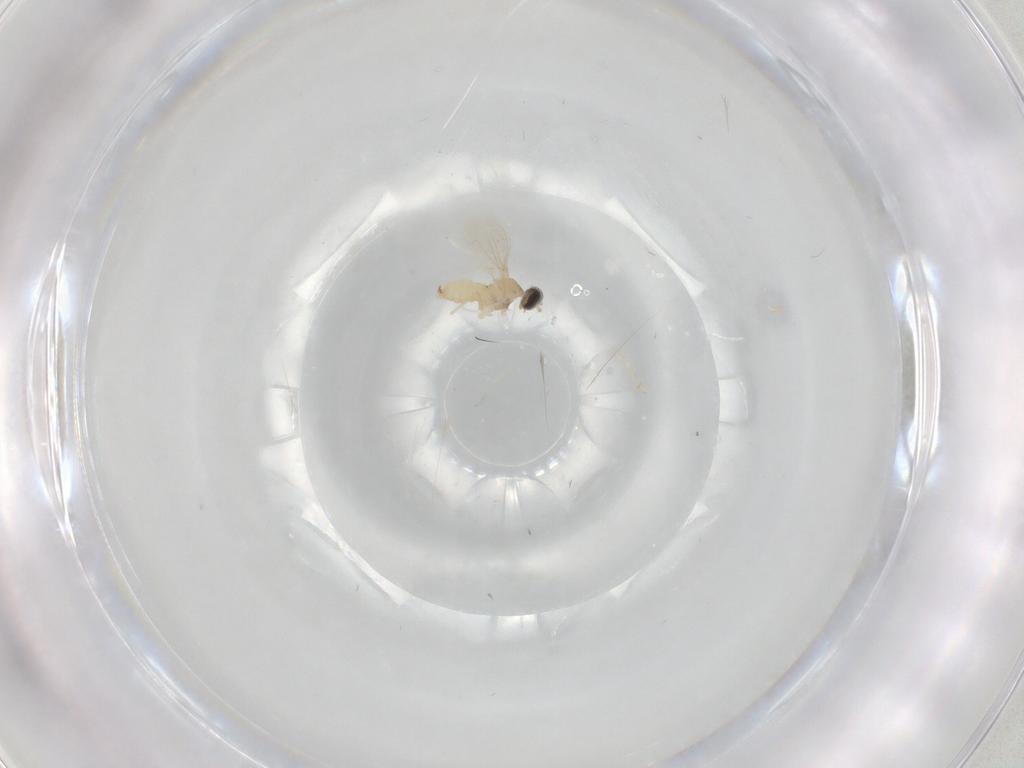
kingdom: Animalia
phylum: Arthropoda
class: Insecta
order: Diptera
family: Cecidomyiidae
